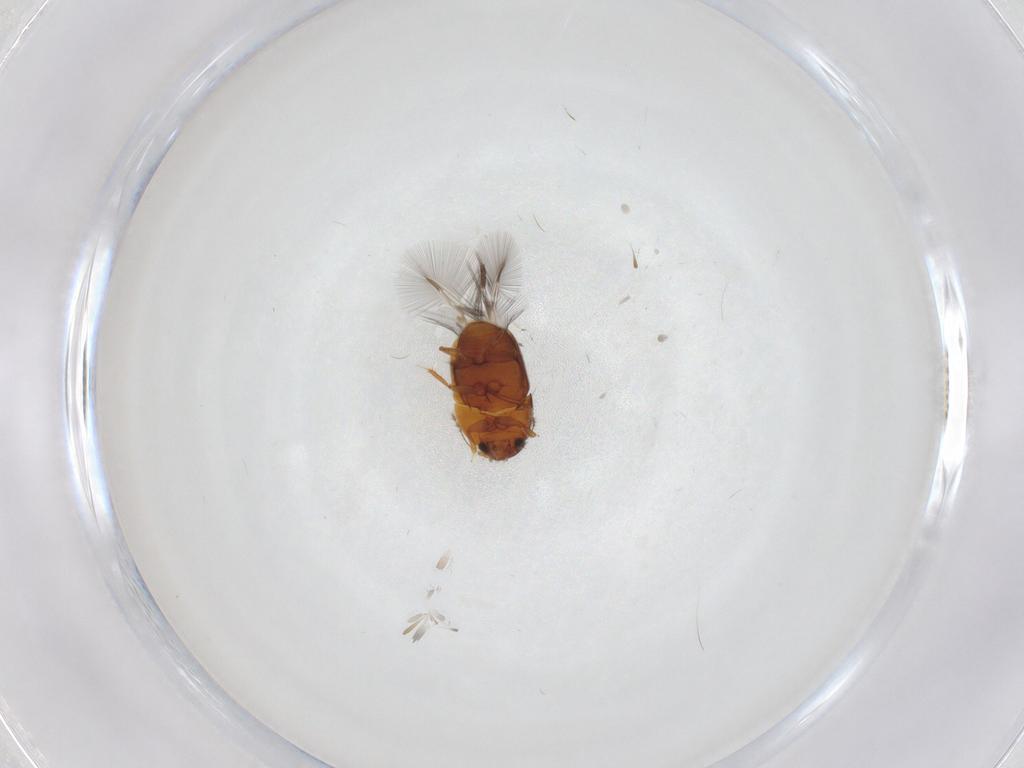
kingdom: Animalia
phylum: Arthropoda
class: Insecta
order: Coleoptera
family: Ptiliidae
